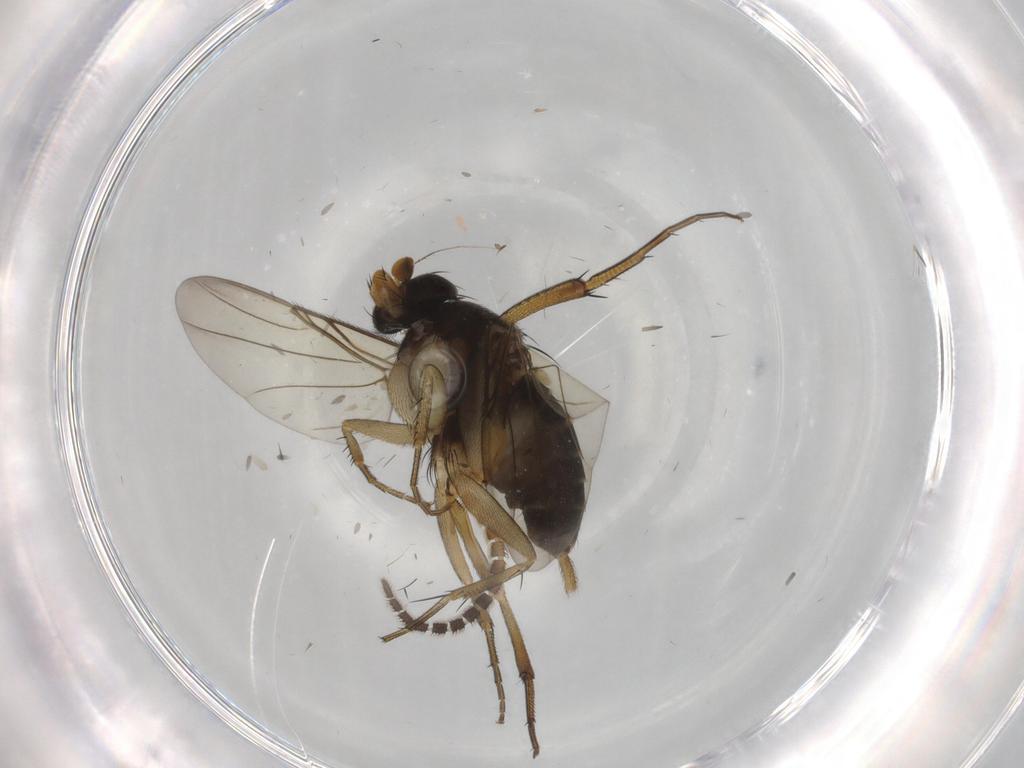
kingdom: Animalia
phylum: Arthropoda
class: Insecta
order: Diptera
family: Phoridae
